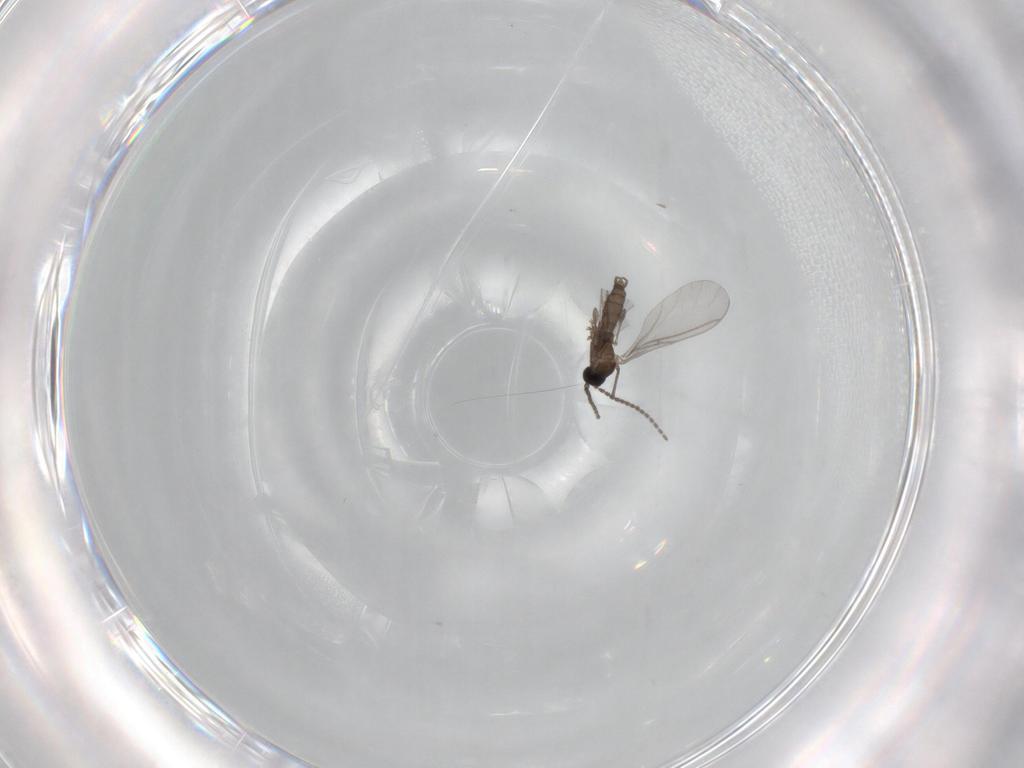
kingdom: Animalia
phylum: Arthropoda
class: Insecta
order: Diptera
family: Sciaridae
